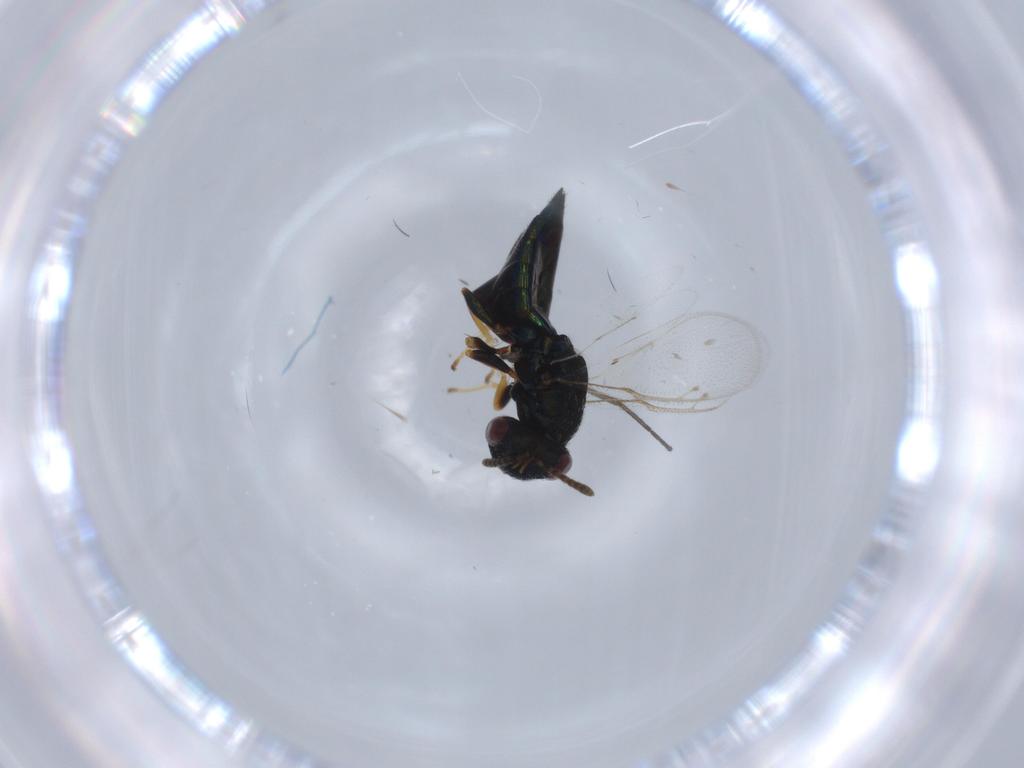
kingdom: Animalia
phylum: Arthropoda
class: Insecta
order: Hymenoptera
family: Pteromalidae
